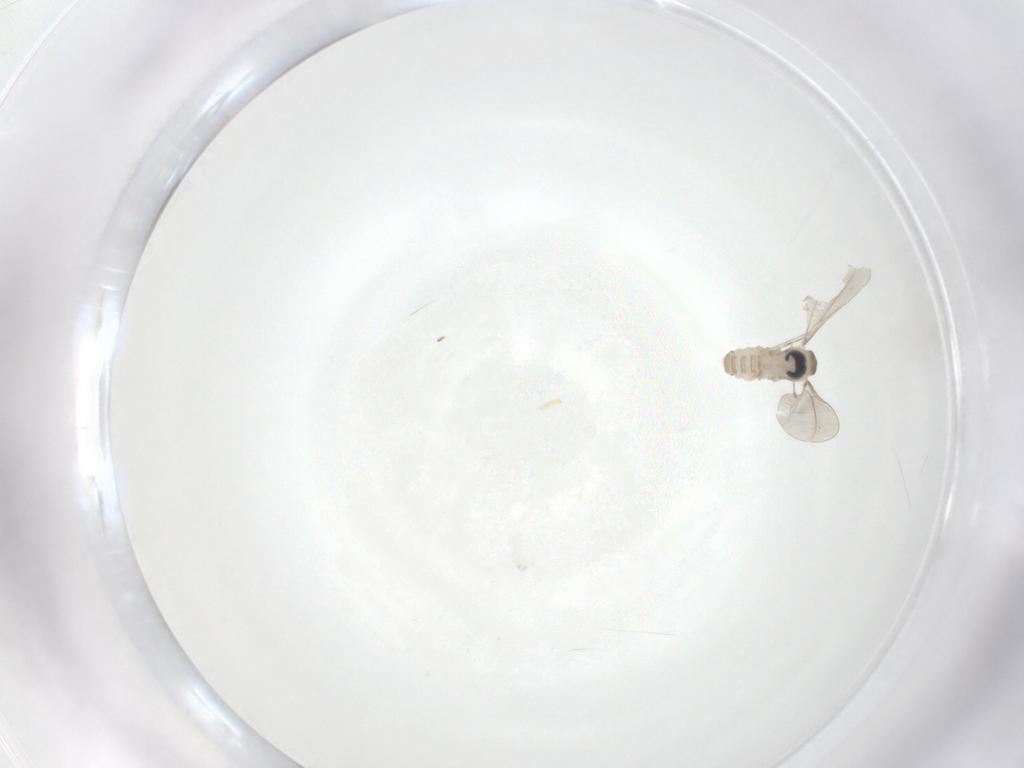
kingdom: Animalia
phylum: Arthropoda
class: Insecta
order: Diptera
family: Cecidomyiidae
